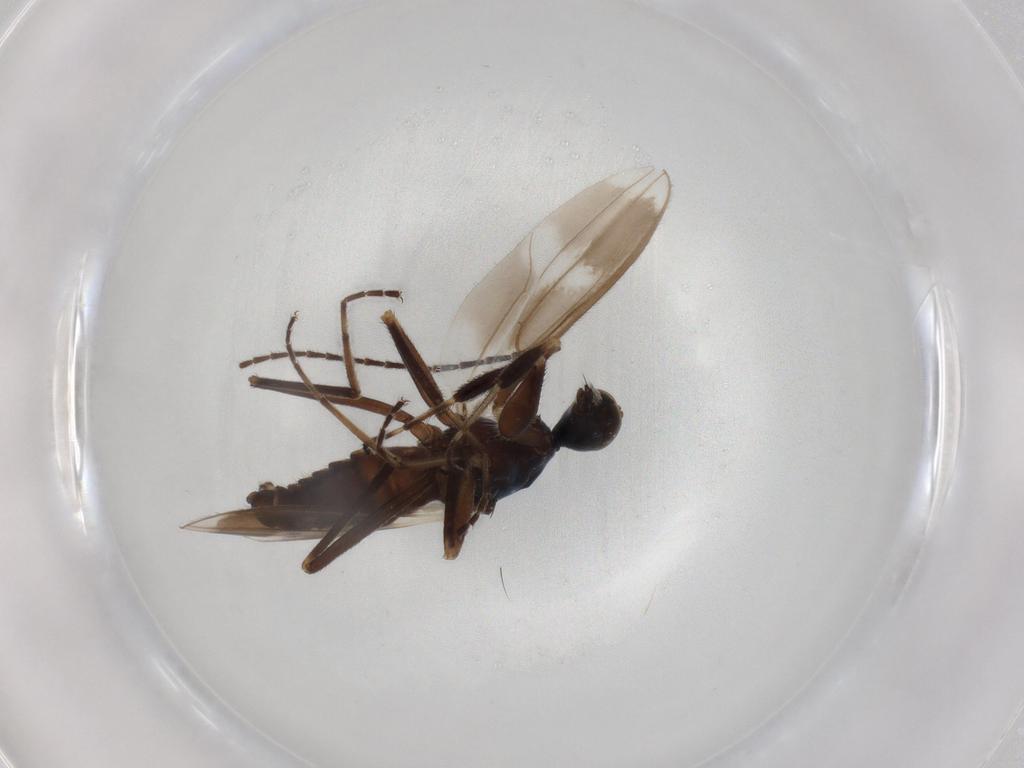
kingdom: Animalia
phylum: Arthropoda
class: Insecta
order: Diptera
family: Hybotidae
